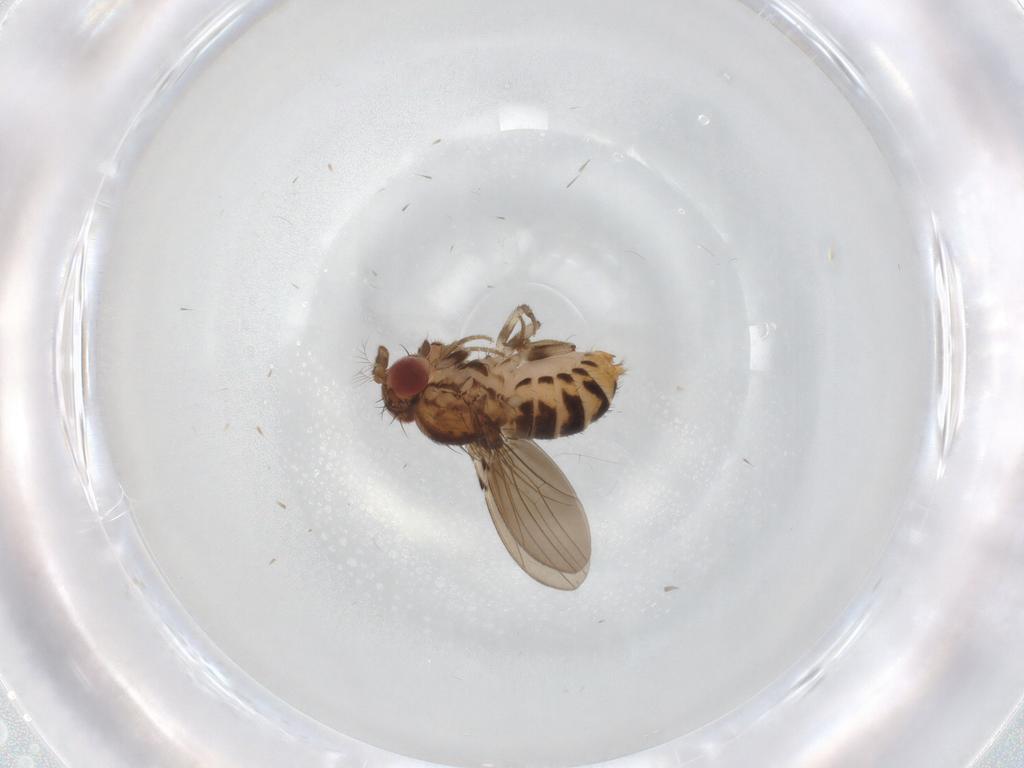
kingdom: Animalia
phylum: Arthropoda
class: Insecta
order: Diptera
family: Drosophilidae
